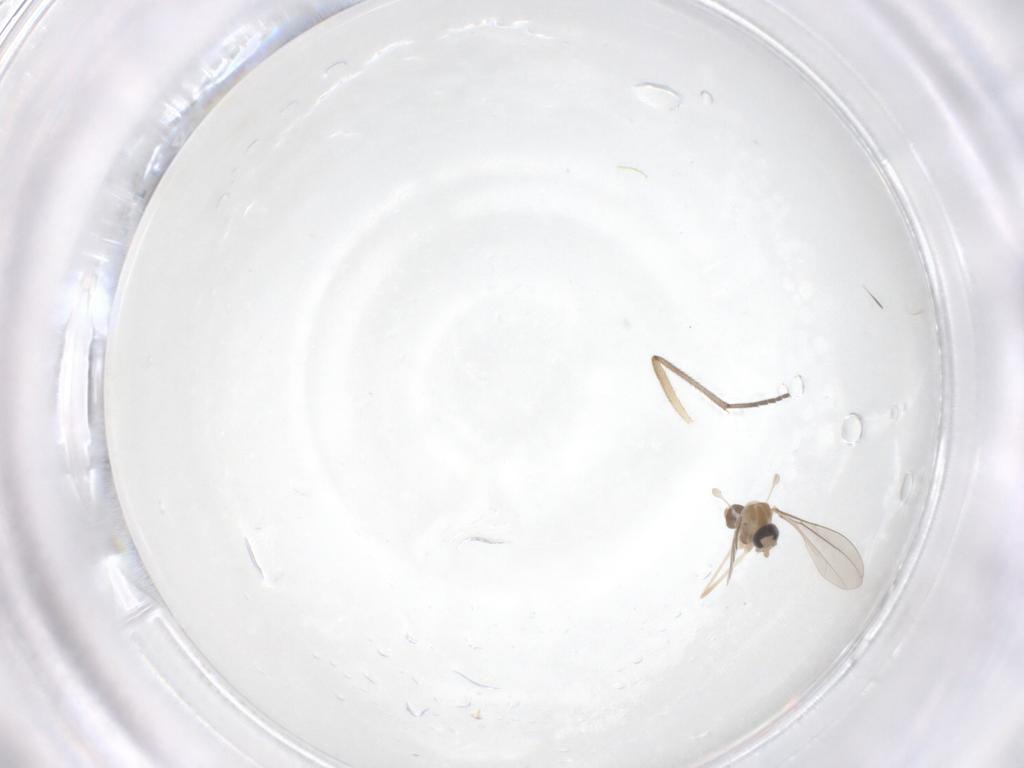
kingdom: Animalia
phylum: Arthropoda
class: Insecta
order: Diptera
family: Cecidomyiidae
